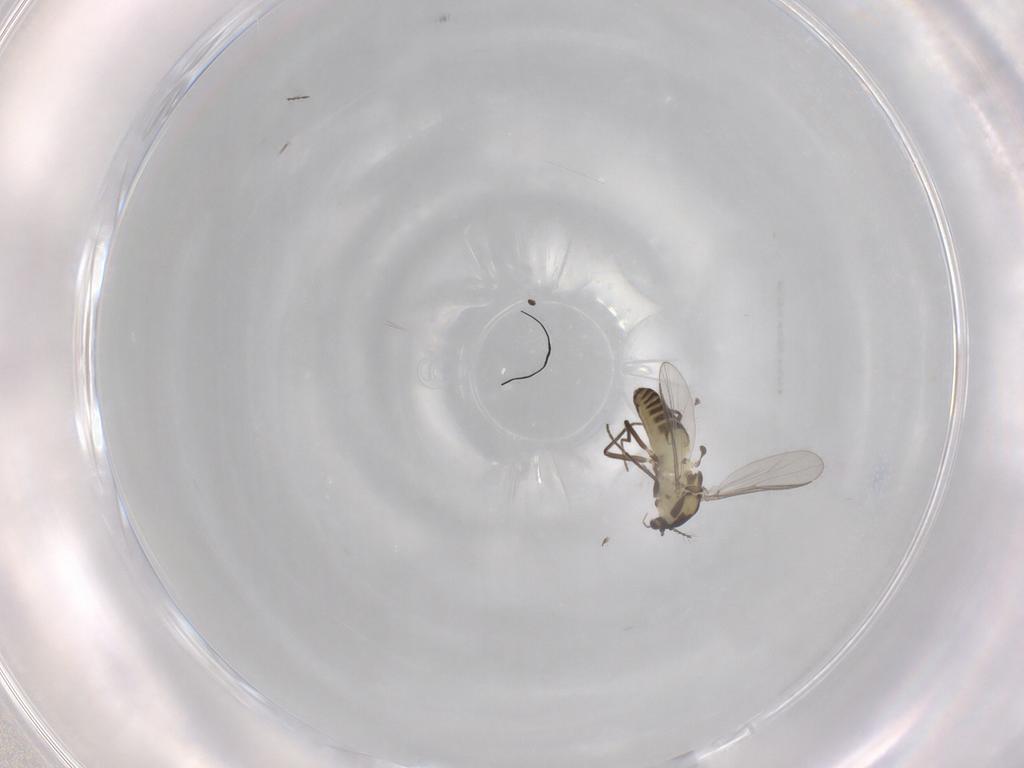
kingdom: Animalia
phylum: Arthropoda
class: Insecta
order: Diptera
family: Chironomidae
